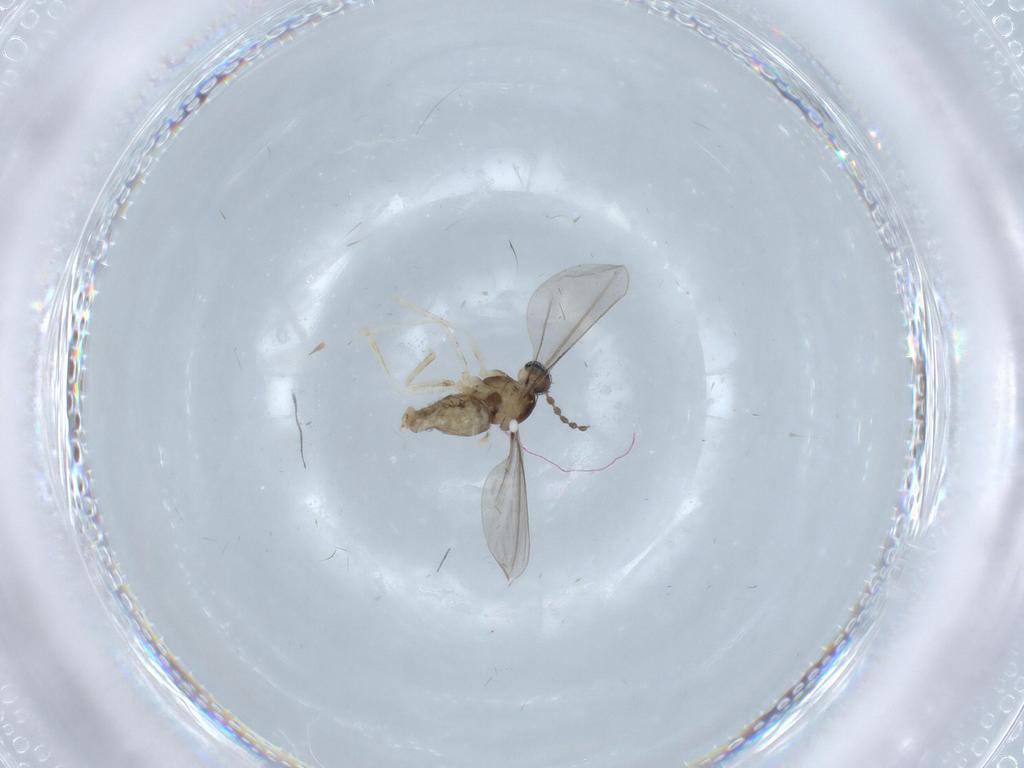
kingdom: Animalia
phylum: Arthropoda
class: Insecta
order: Diptera
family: Cecidomyiidae
